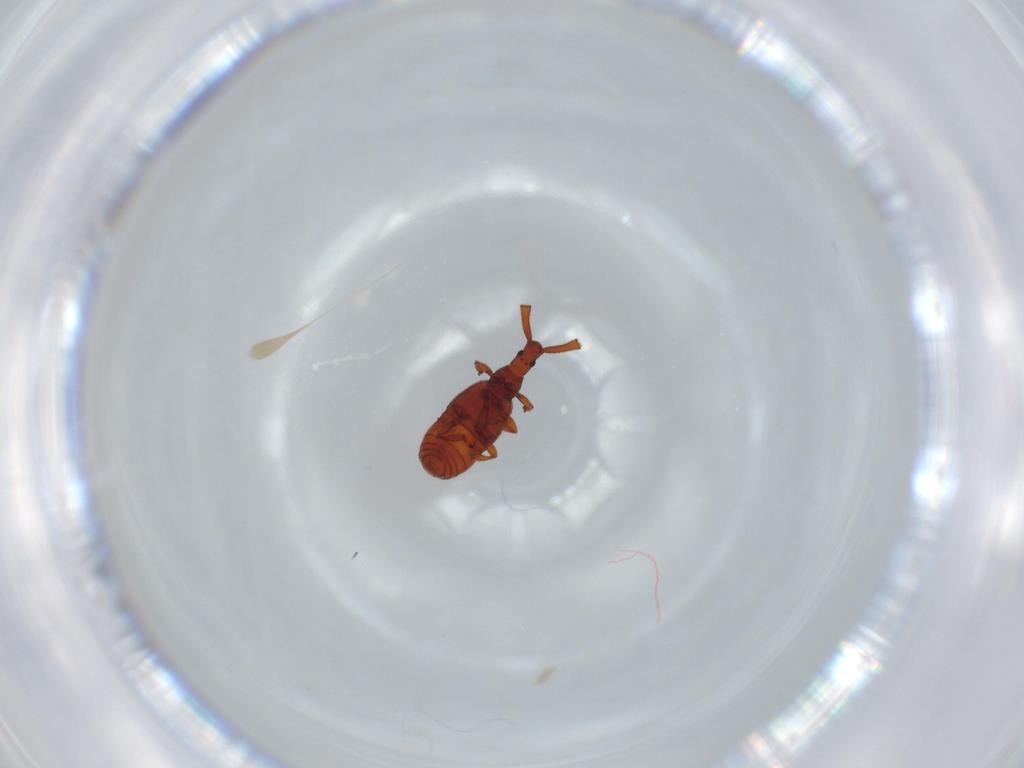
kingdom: Animalia
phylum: Arthropoda
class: Insecta
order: Coleoptera
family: Staphylinidae
